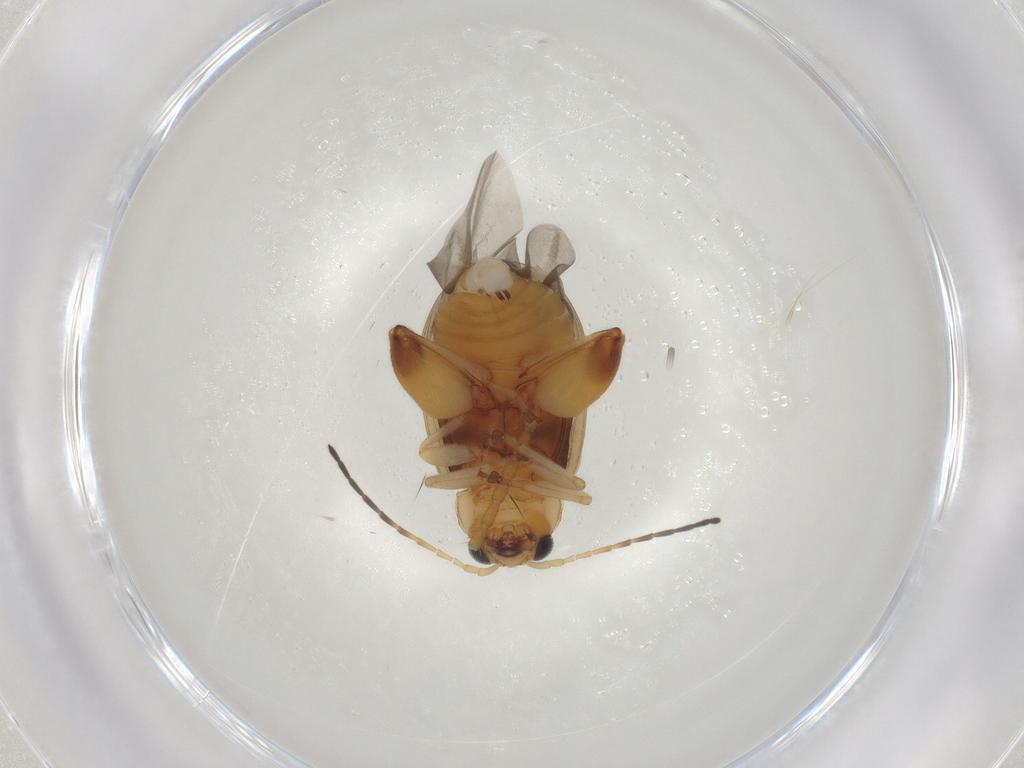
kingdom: Animalia
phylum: Arthropoda
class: Insecta
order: Coleoptera
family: Chrysomelidae
